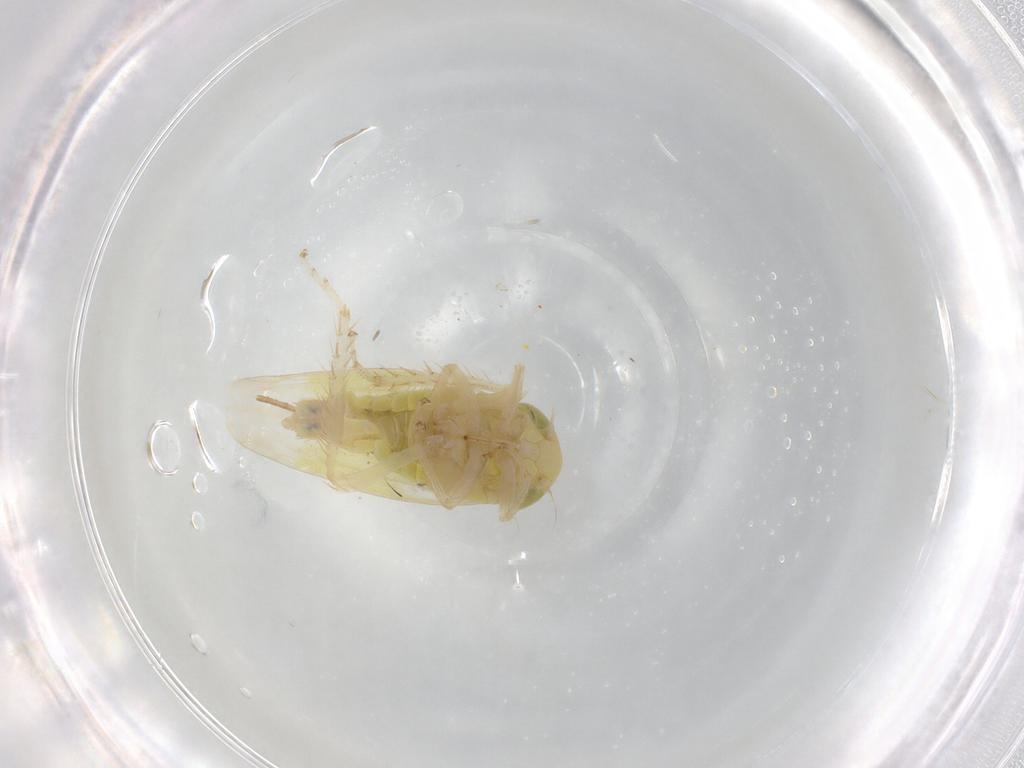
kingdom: Animalia
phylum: Arthropoda
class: Insecta
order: Hemiptera
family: Cicadellidae
